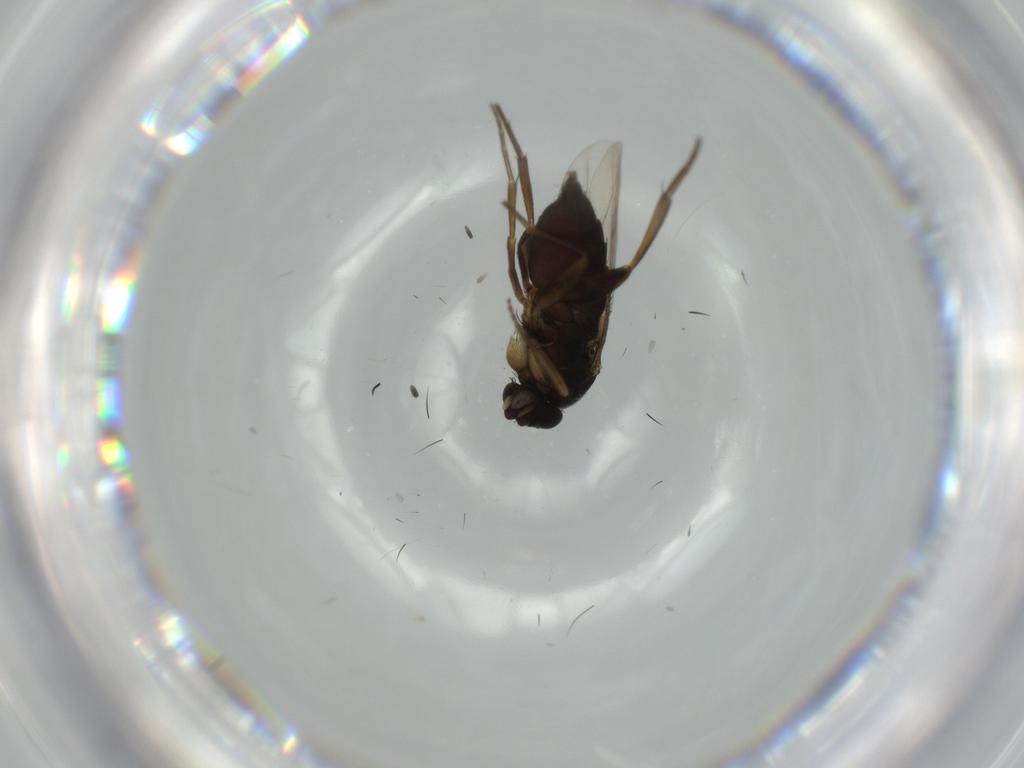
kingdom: Animalia
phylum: Arthropoda
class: Insecta
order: Diptera
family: Phoridae
